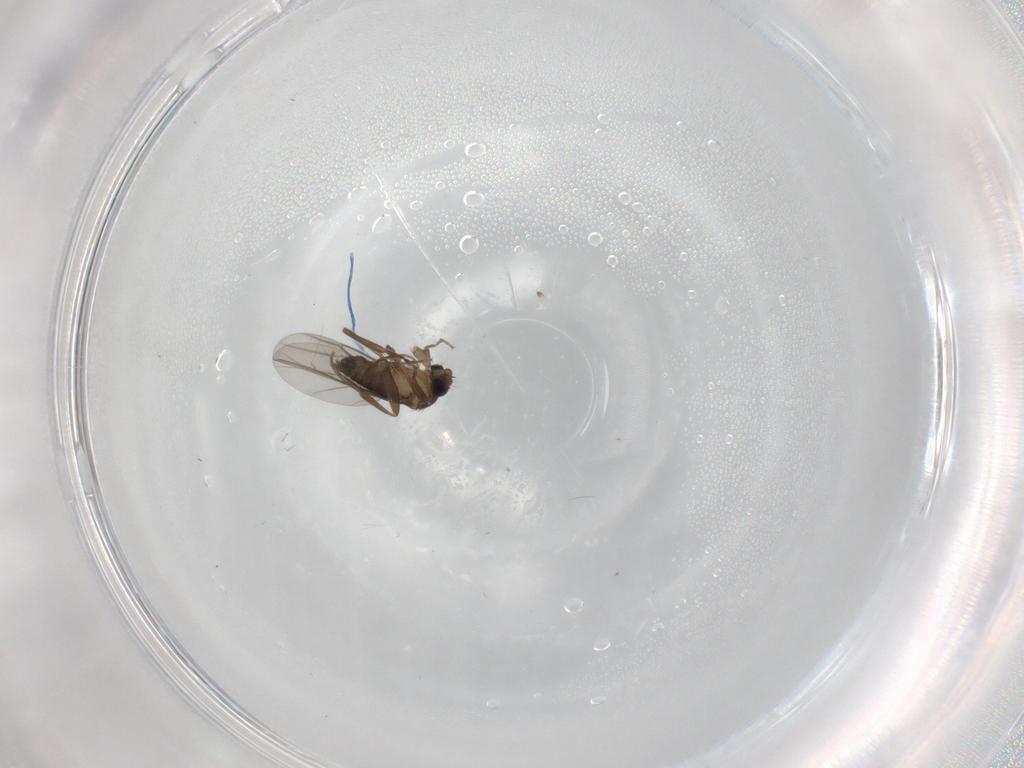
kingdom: Animalia
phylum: Arthropoda
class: Insecta
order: Diptera
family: Phoridae
